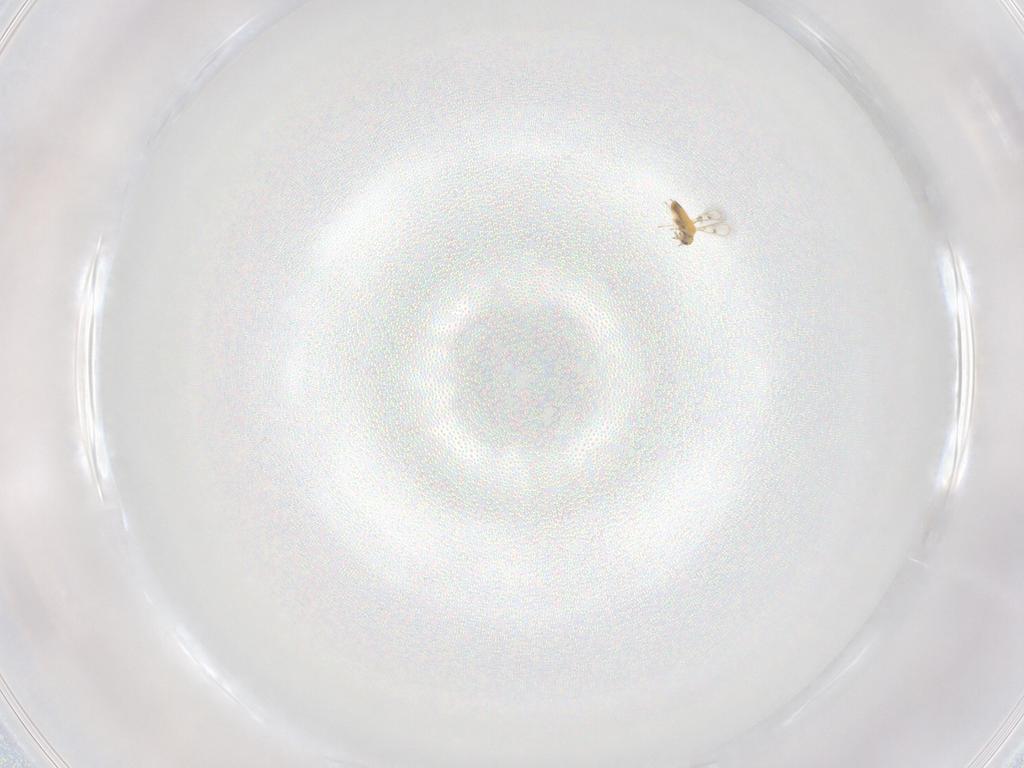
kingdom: Animalia
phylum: Arthropoda
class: Insecta
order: Hymenoptera
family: Trichogrammatidae
